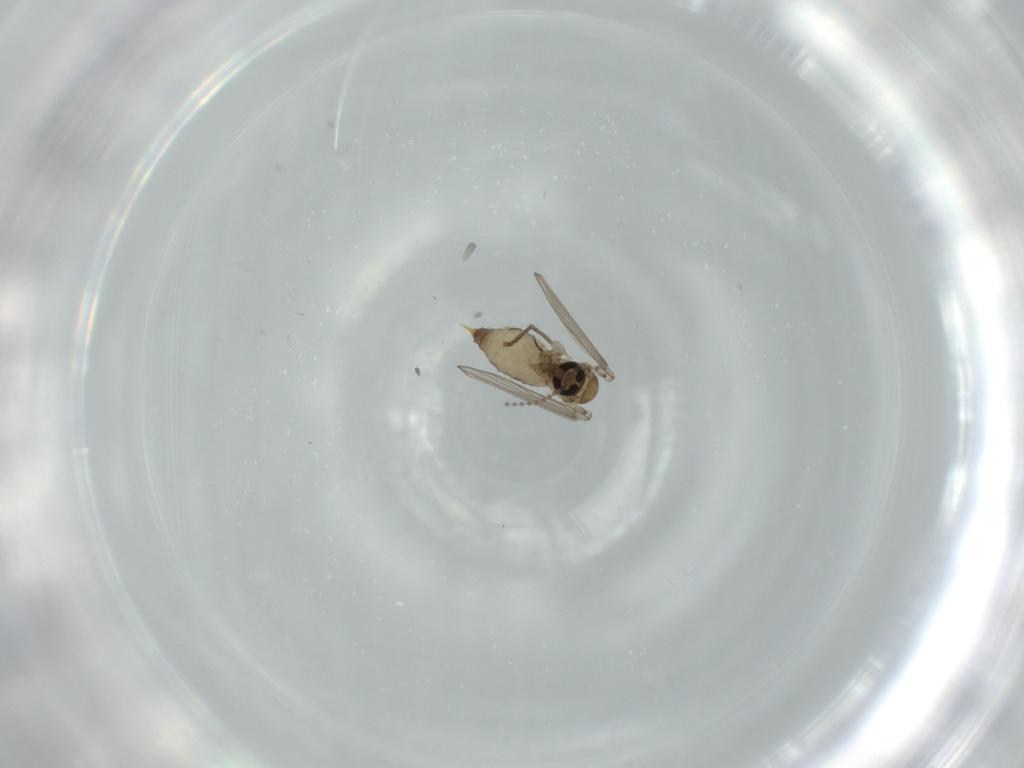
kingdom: Animalia
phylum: Arthropoda
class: Insecta
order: Diptera
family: Psychodidae
